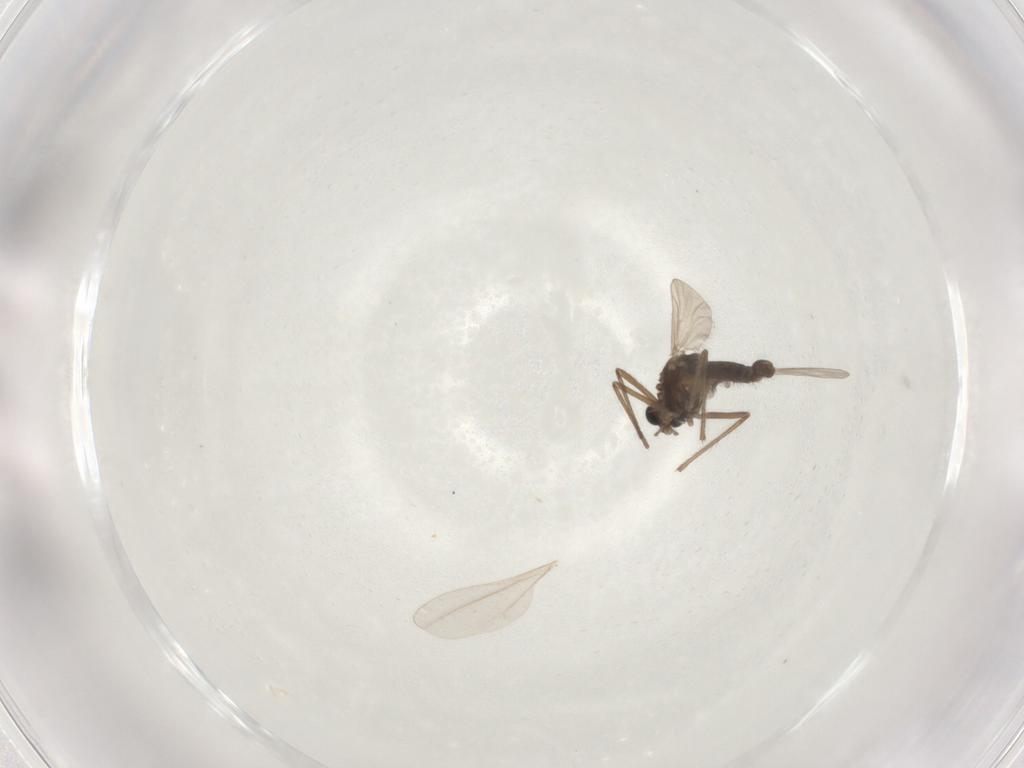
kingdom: Animalia
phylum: Arthropoda
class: Insecta
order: Diptera
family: Chironomidae
